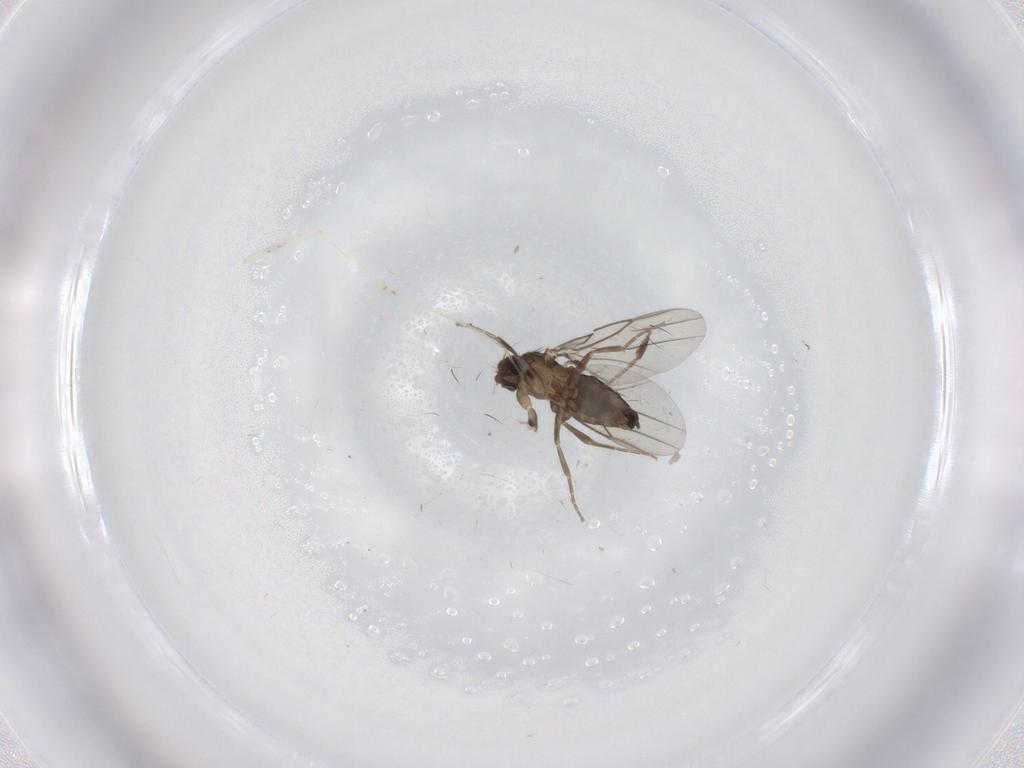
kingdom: Animalia
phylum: Arthropoda
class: Insecta
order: Diptera
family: Phoridae
